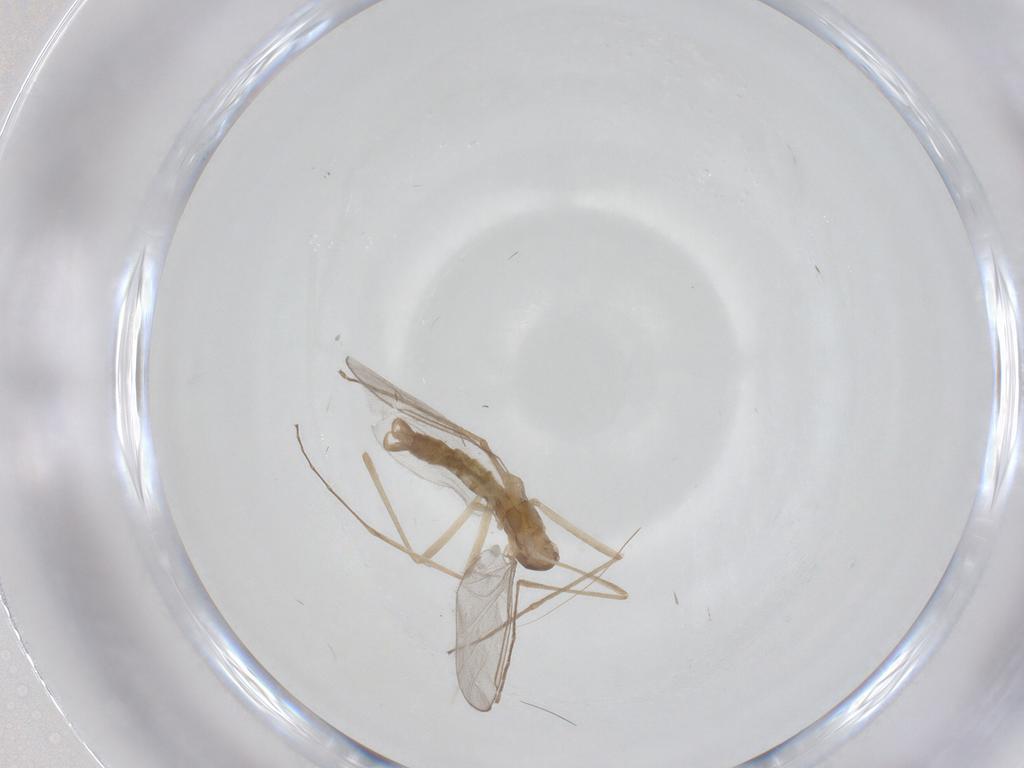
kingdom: Animalia
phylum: Arthropoda
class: Insecta
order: Diptera
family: Cecidomyiidae
